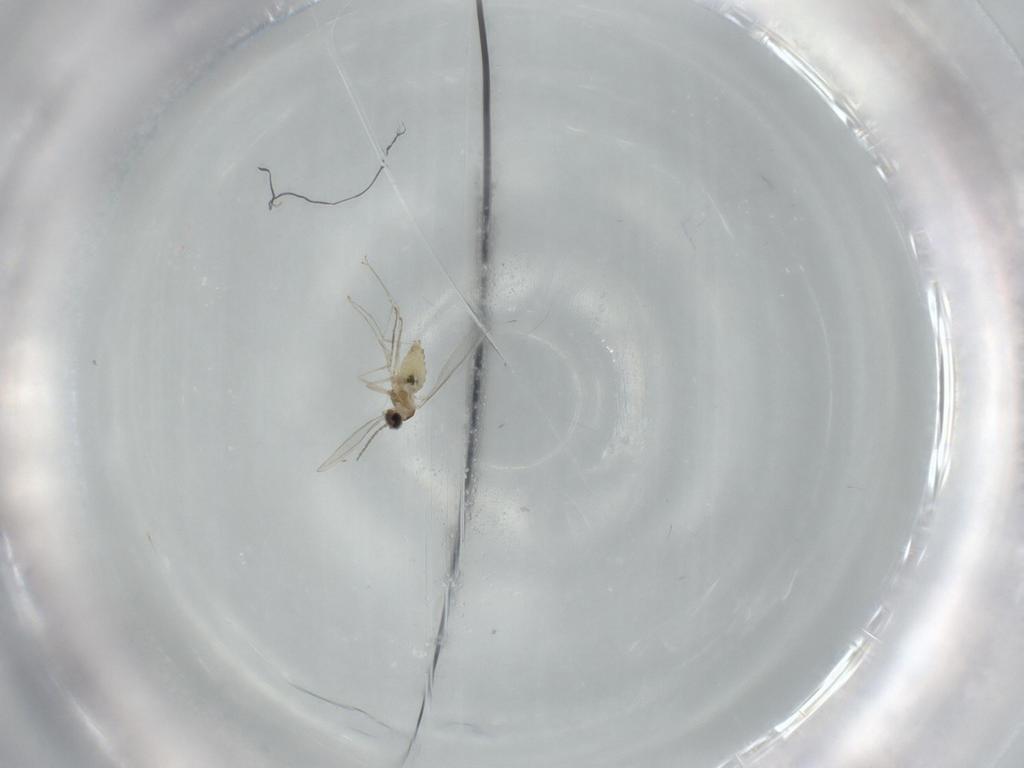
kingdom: Animalia
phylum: Arthropoda
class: Insecta
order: Diptera
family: Cecidomyiidae
